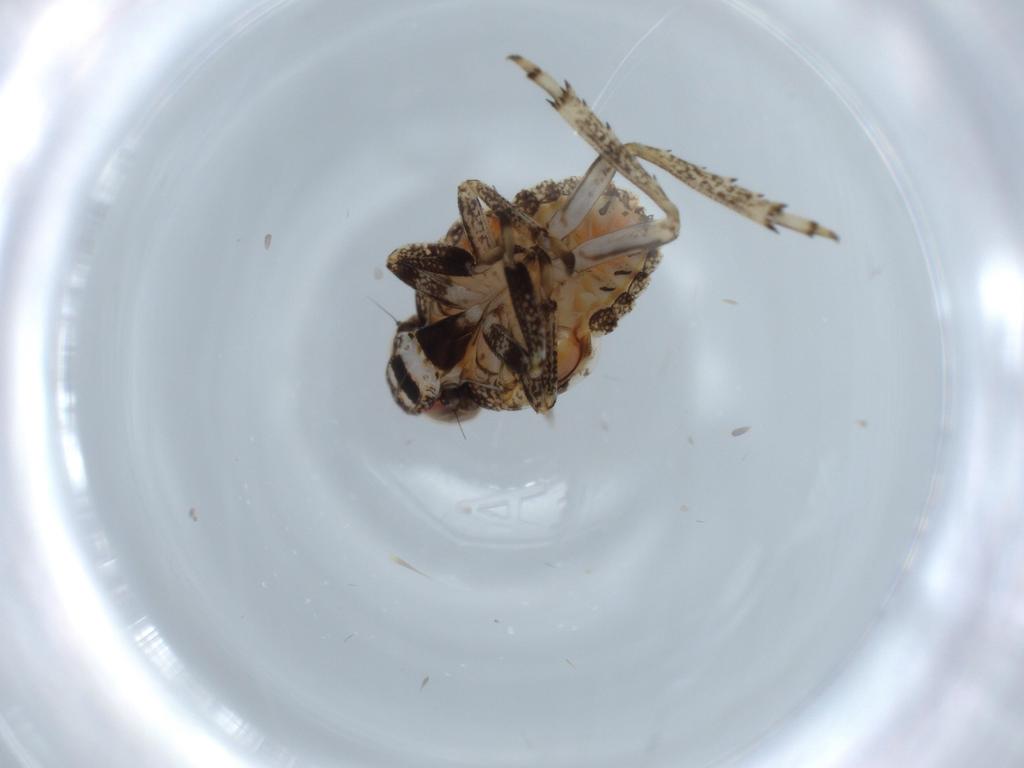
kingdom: Animalia
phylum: Arthropoda
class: Insecta
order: Hemiptera
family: Issidae
